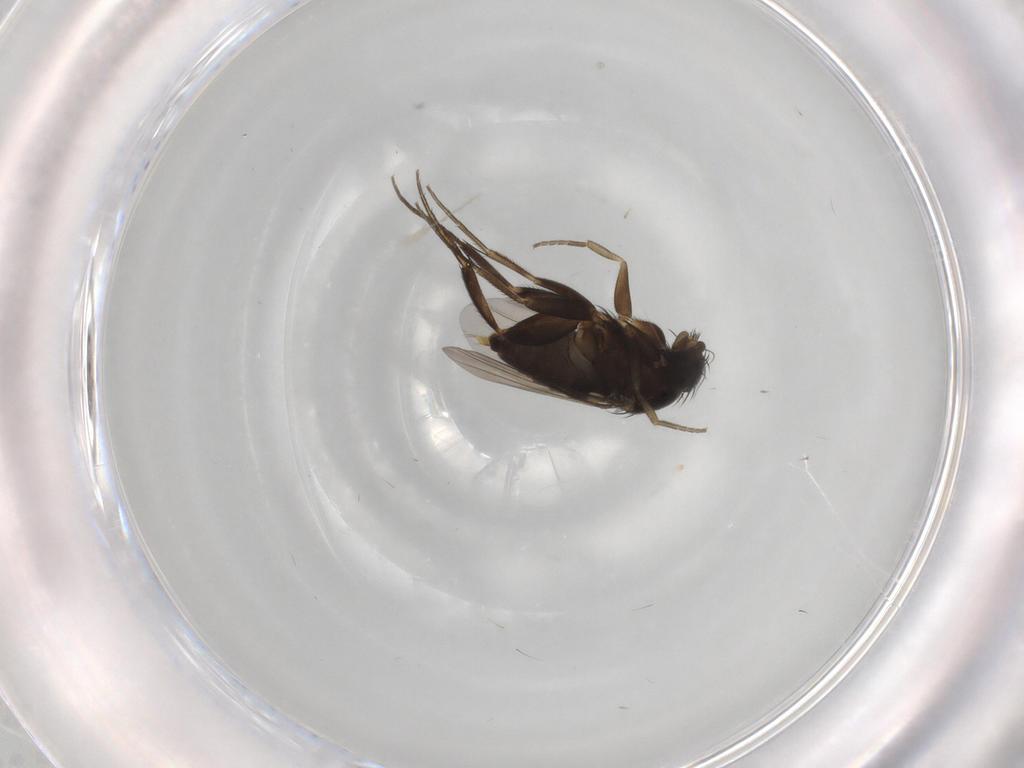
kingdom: Animalia
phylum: Arthropoda
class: Insecta
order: Diptera
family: Phoridae
